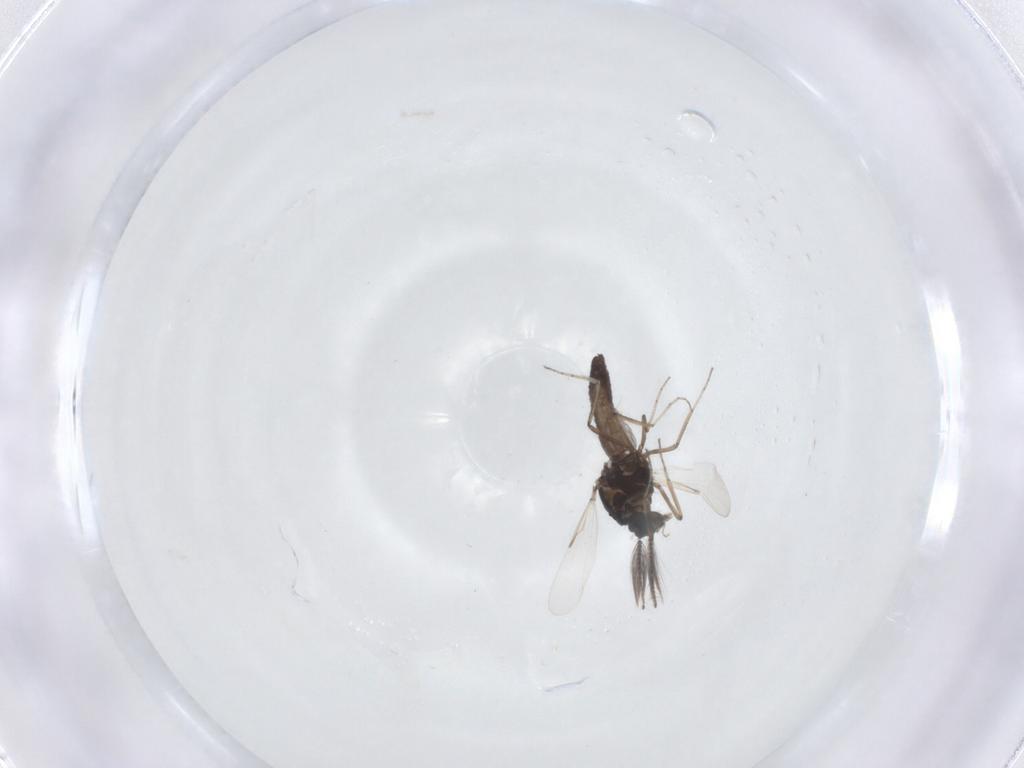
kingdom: Animalia
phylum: Arthropoda
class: Insecta
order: Diptera
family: Ceratopogonidae
